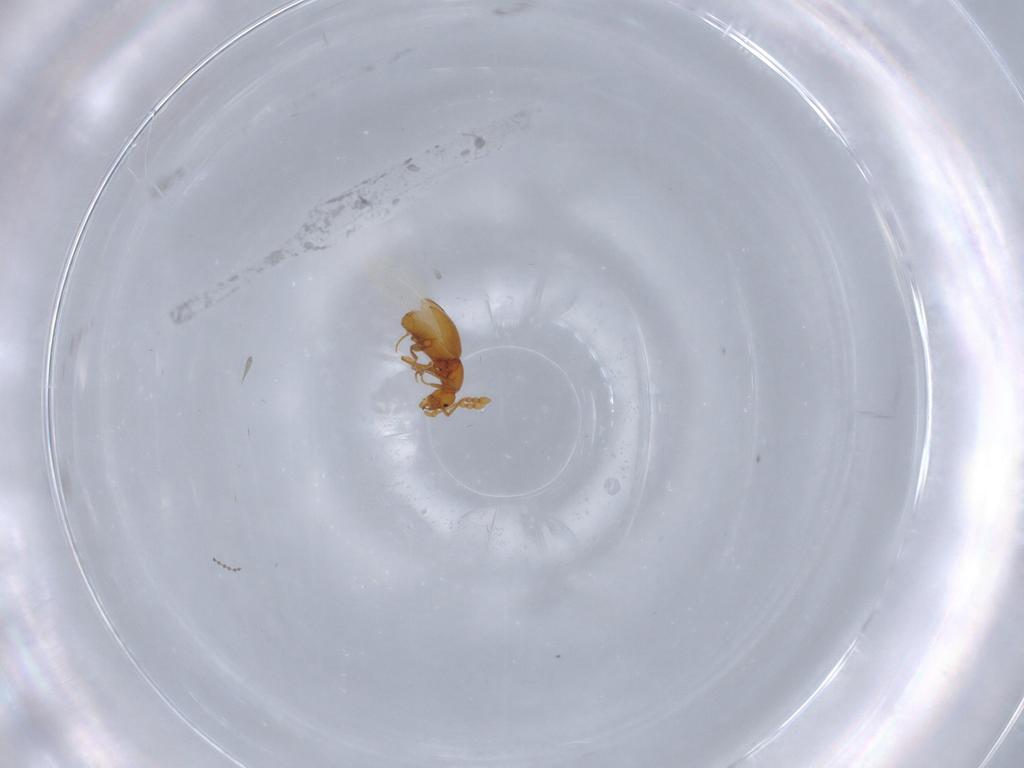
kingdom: Animalia
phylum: Arthropoda
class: Insecta
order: Coleoptera
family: Staphylinidae
